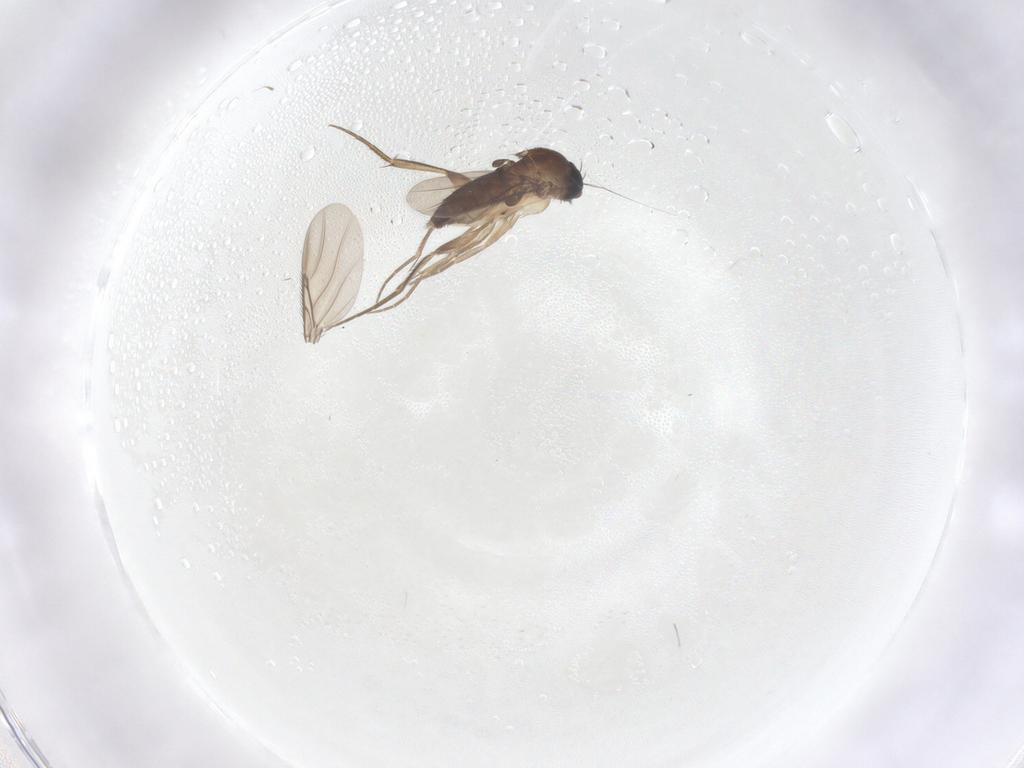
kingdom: Animalia
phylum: Arthropoda
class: Insecta
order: Diptera
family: Phoridae
